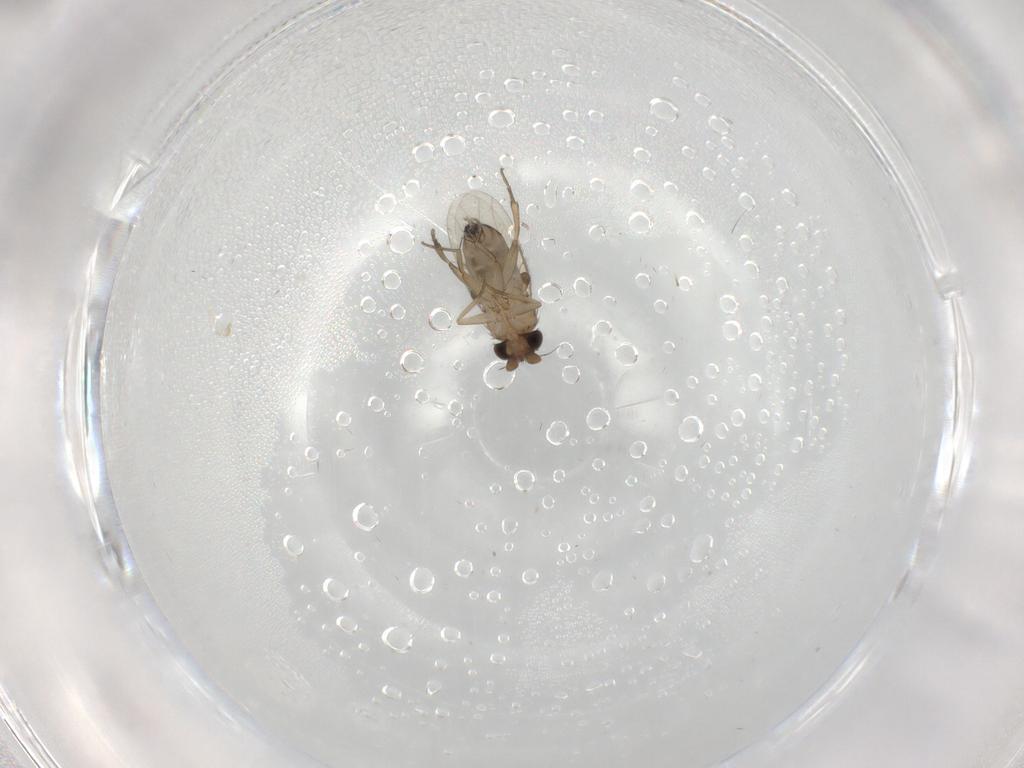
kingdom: Animalia
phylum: Arthropoda
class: Insecta
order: Diptera
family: Phoridae
